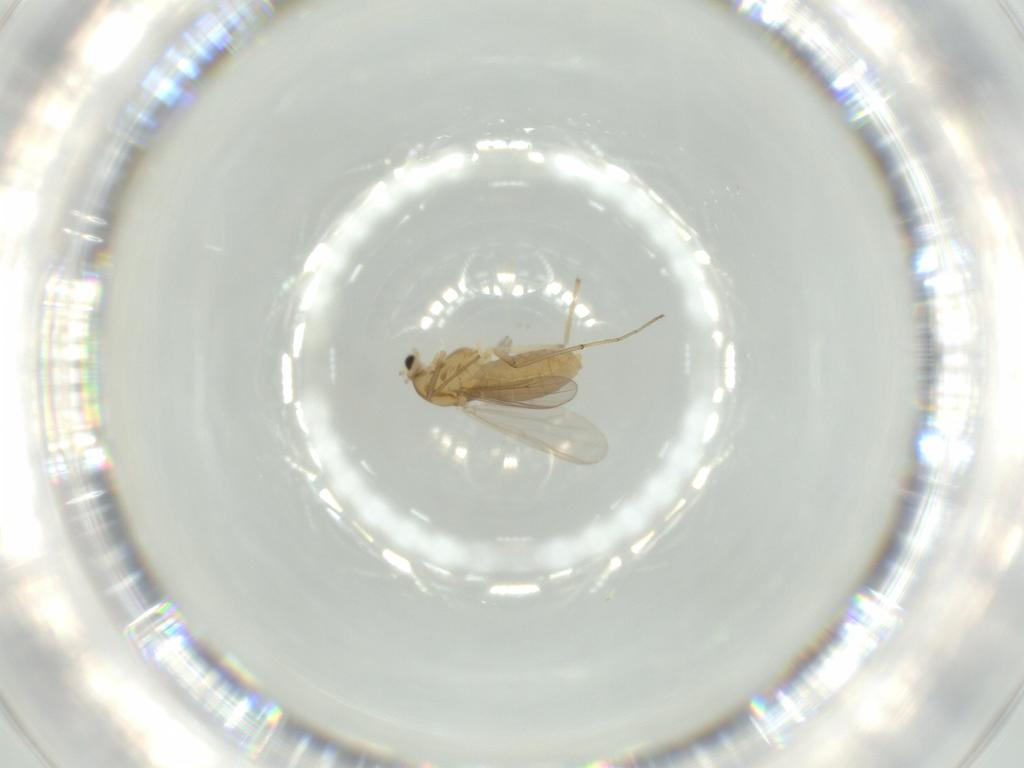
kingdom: Animalia
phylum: Arthropoda
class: Insecta
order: Diptera
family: Chironomidae
